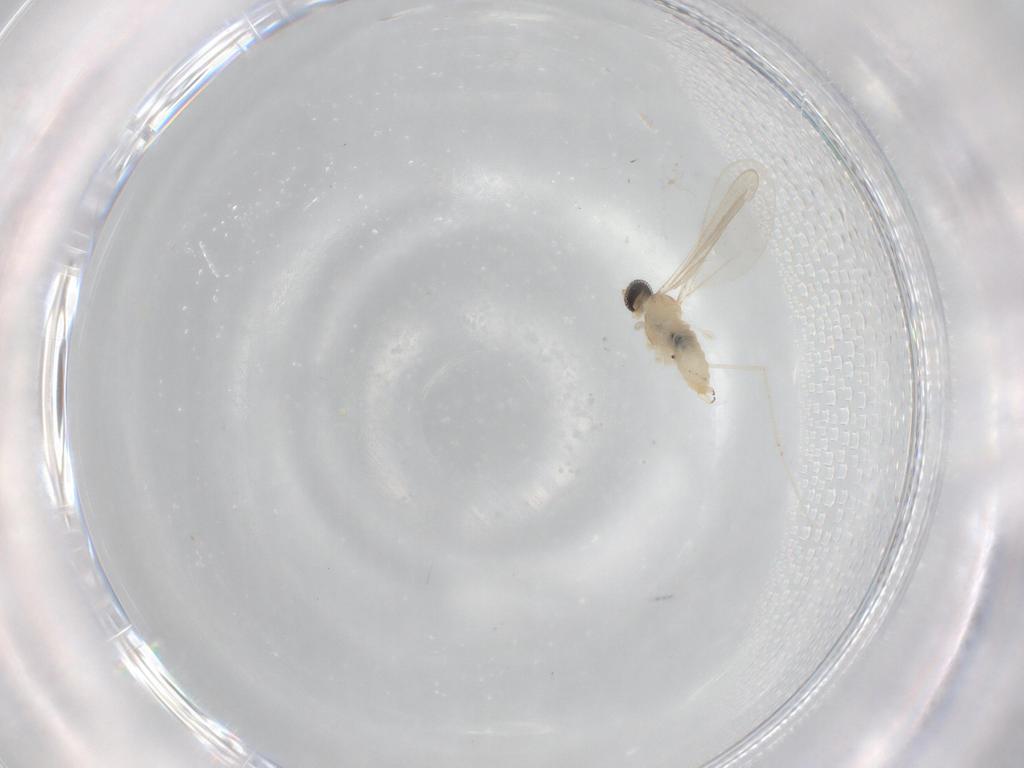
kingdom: Animalia
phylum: Arthropoda
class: Insecta
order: Diptera
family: Cecidomyiidae
